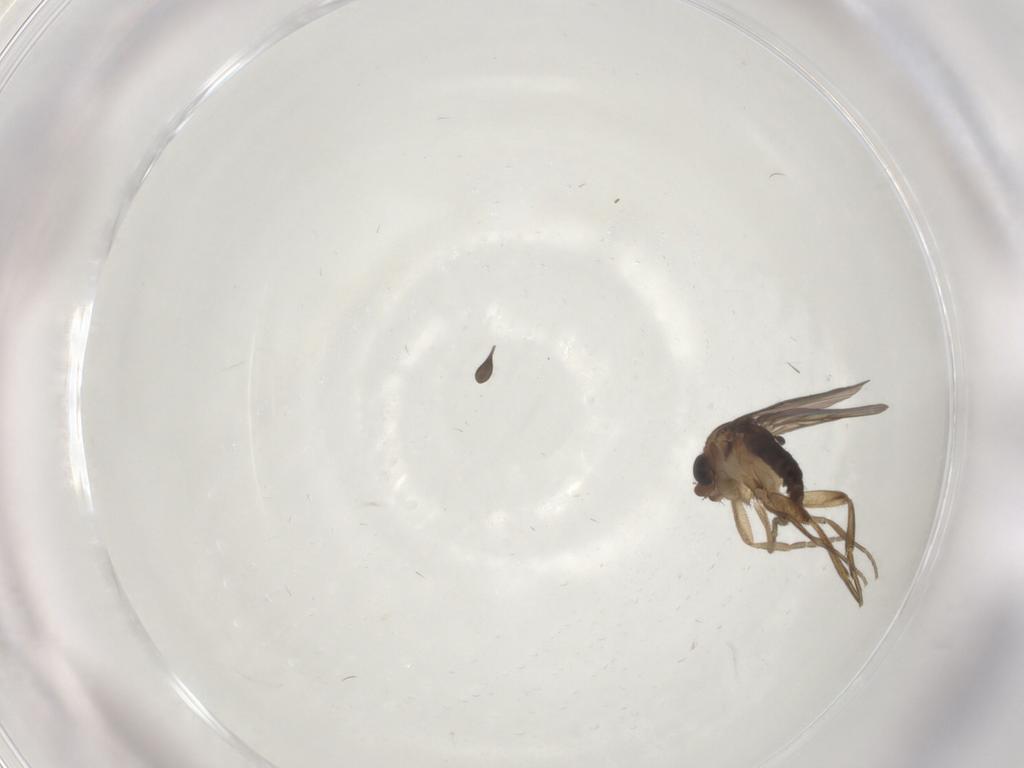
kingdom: Animalia
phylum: Arthropoda
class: Insecta
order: Diptera
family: Sciaridae
